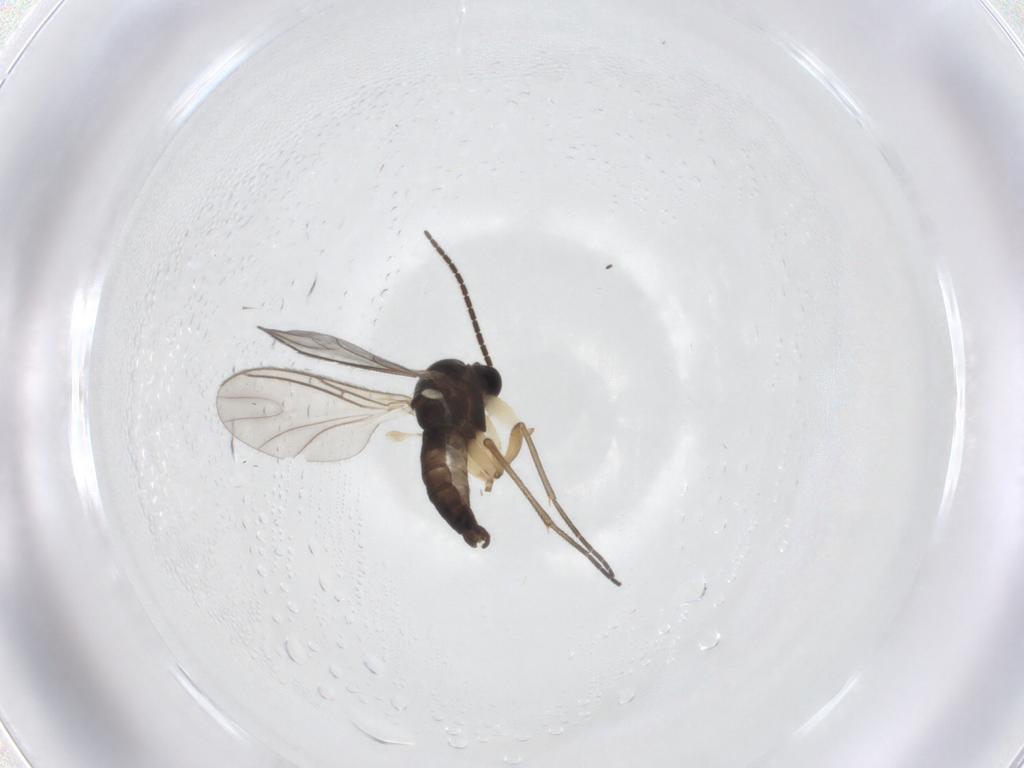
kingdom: Animalia
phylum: Arthropoda
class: Insecta
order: Diptera
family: Sciaridae
